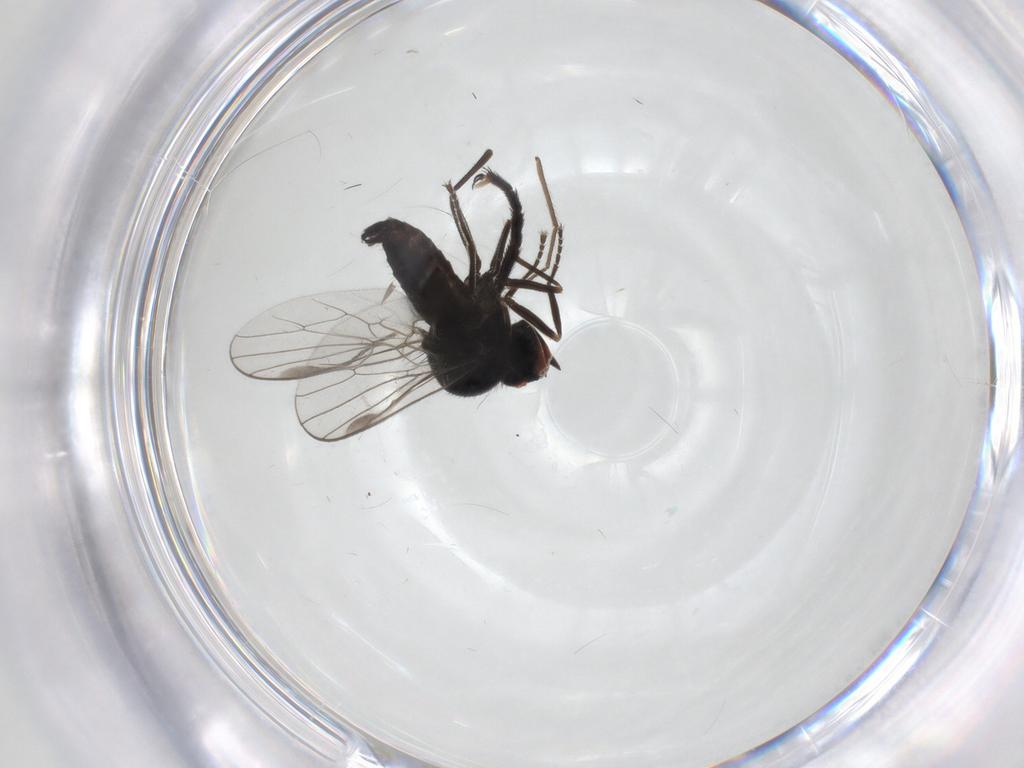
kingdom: Animalia
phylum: Arthropoda
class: Insecta
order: Diptera
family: Hybotidae
